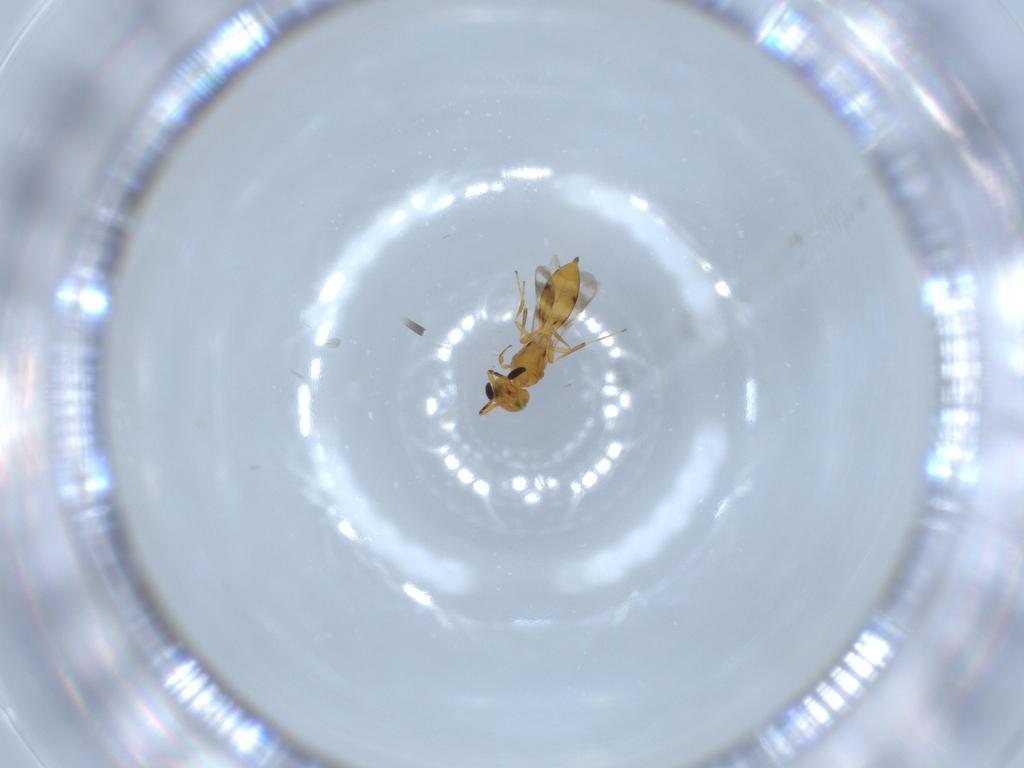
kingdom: Animalia
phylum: Arthropoda
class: Insecta
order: Hymenoptera
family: Scelionidae
